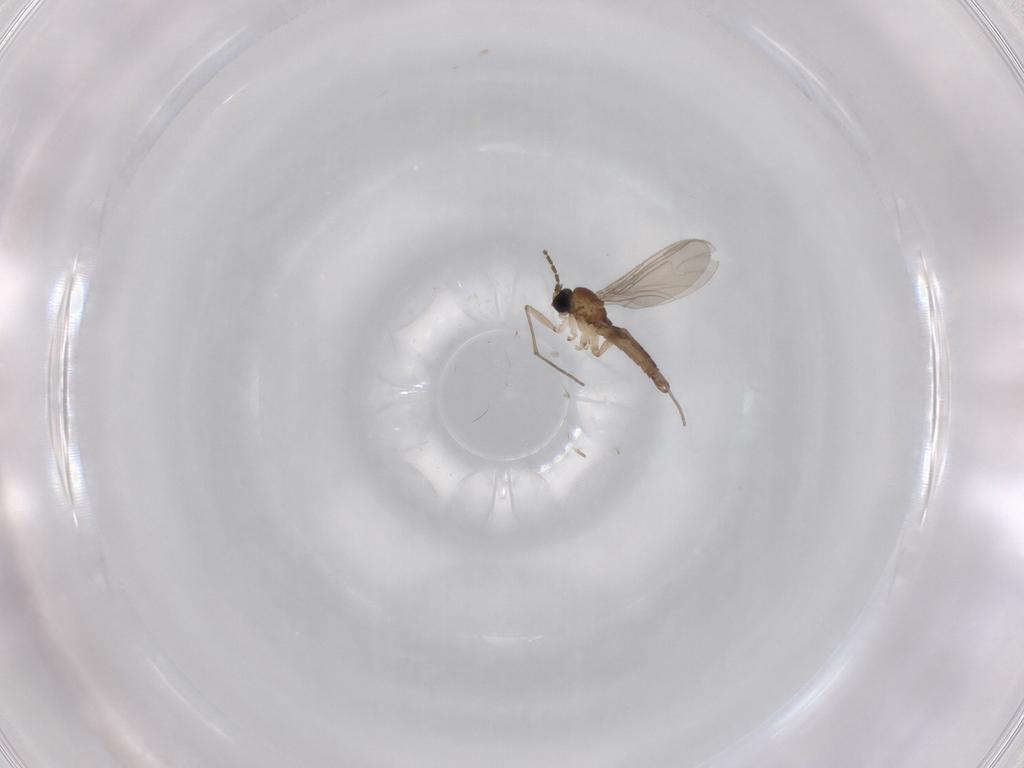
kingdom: Animalia
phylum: Arthropoda
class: Insecta
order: Diptera
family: Sciaridae
